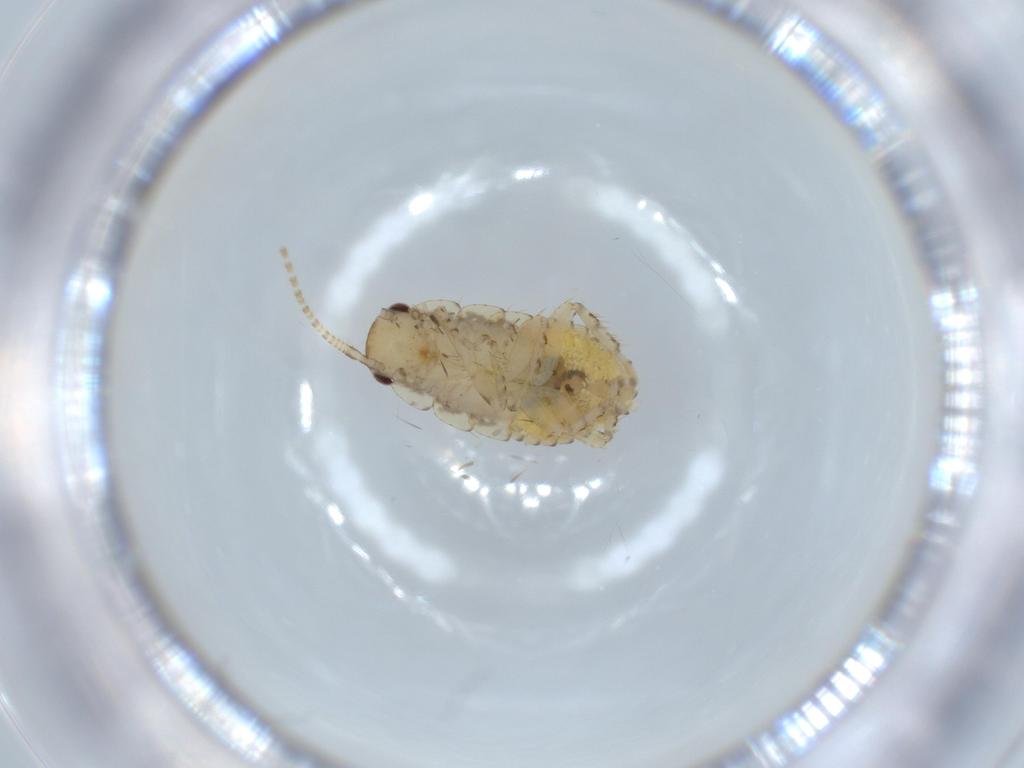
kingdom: Animalia
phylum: Arthropoda
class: Insecta
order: Blattodea
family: Ectobiidae
